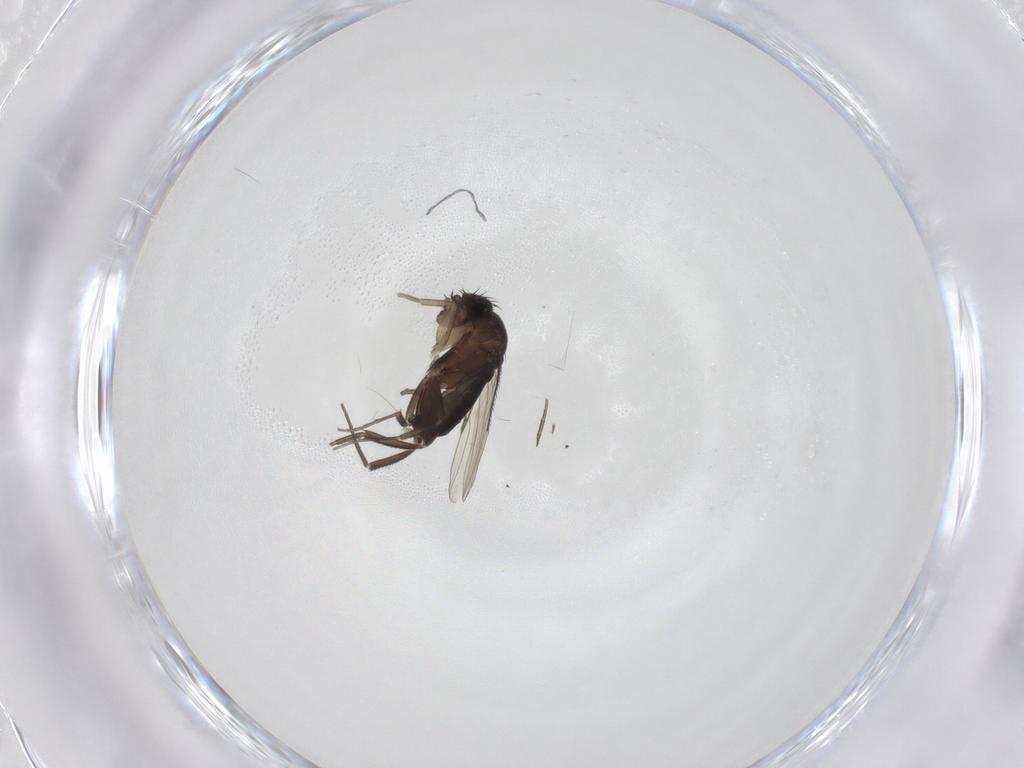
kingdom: Animalia
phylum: Arthropoda
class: Insecta
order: Diptera
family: Phoridae
